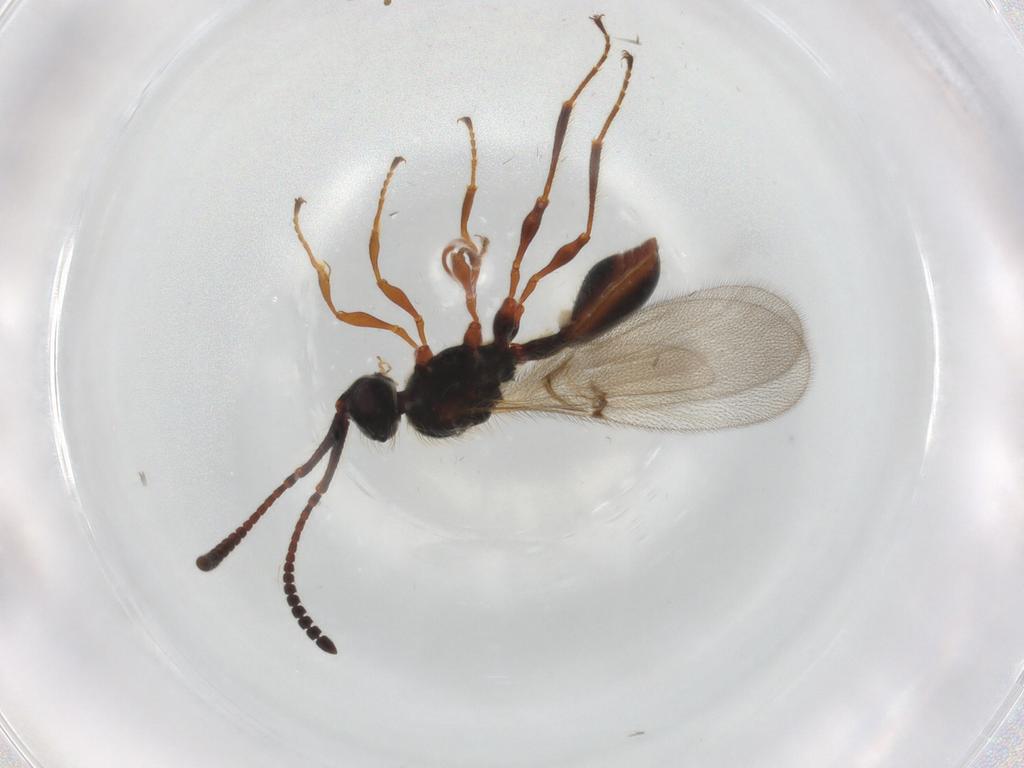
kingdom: Animalia
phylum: Arthropoda
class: Insecta
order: Hymenoptera
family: Diapriidae
